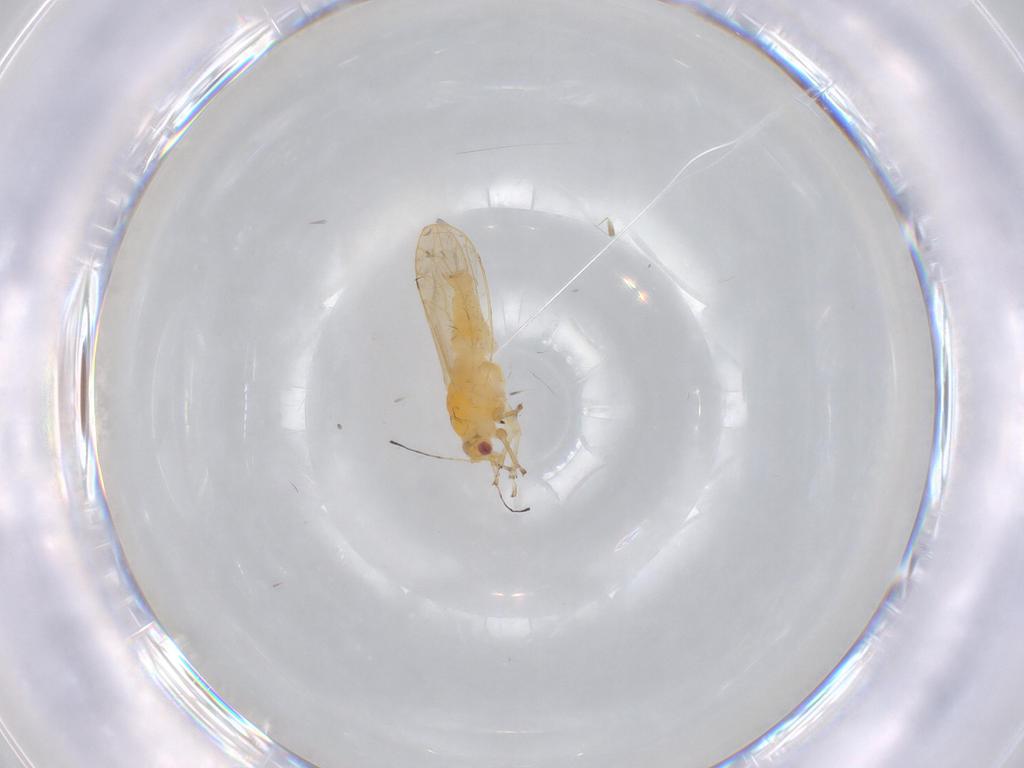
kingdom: Animalia
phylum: Arthropoda
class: Insecta
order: Hemiptera
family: Triozidae
